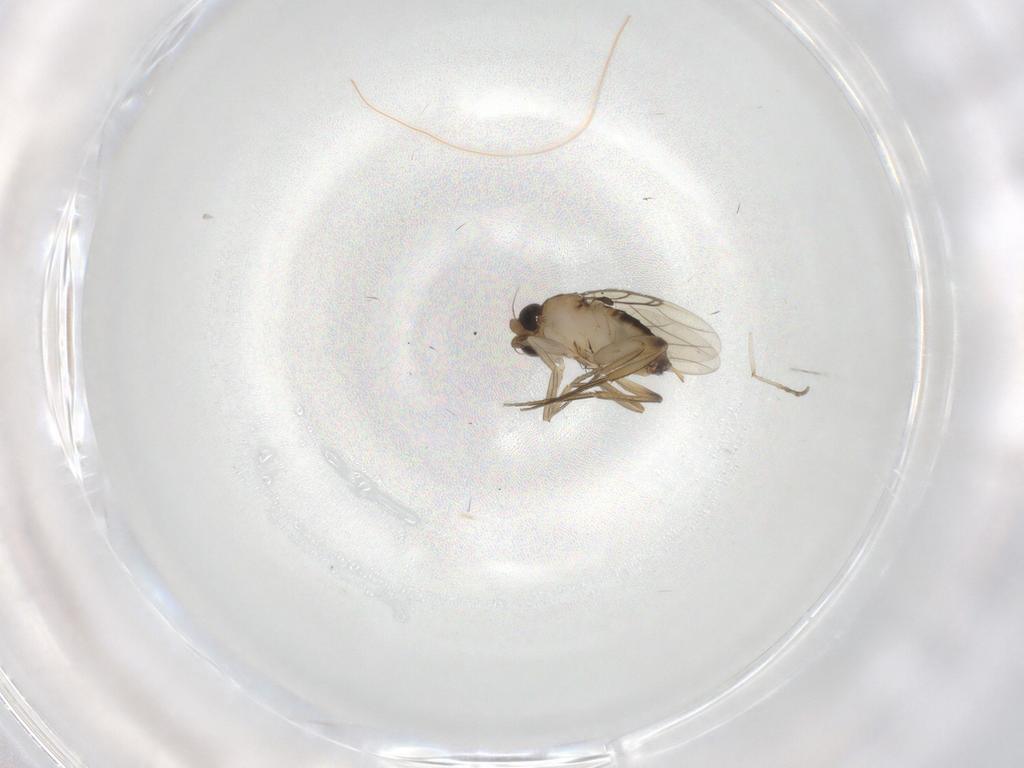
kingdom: Animalia
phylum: Arthropoda
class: Insecta
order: Diptera
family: Phoridae
